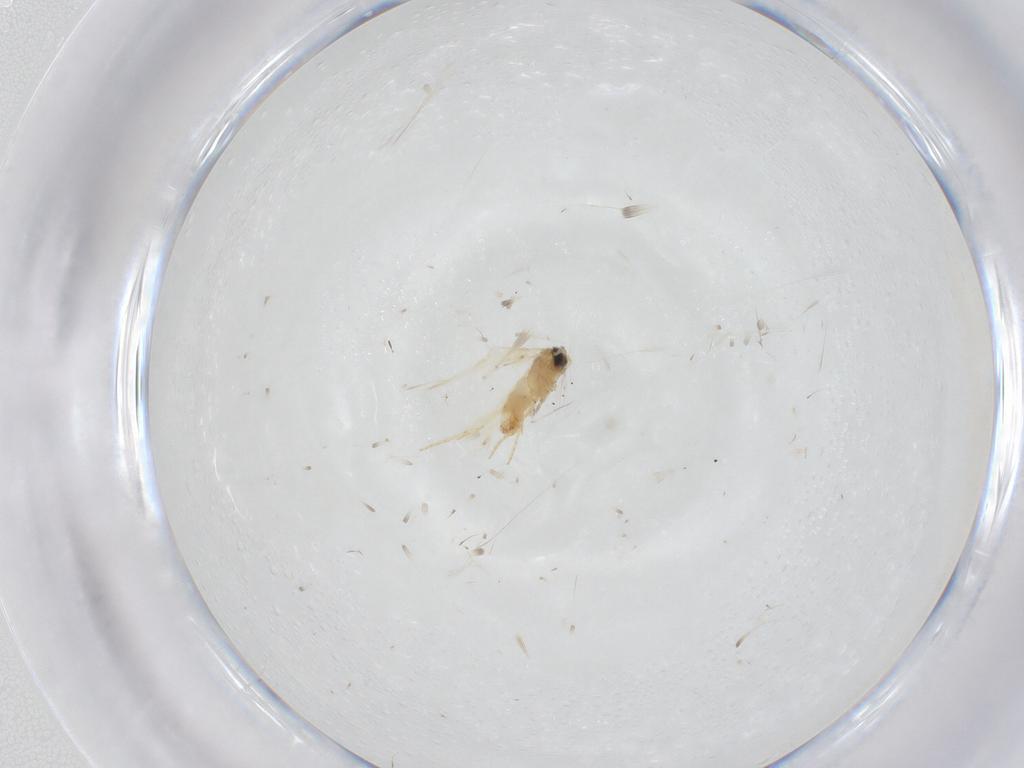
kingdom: Animalia
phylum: Arthropoda
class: Insecta
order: Lepidoptera
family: Crambidae
